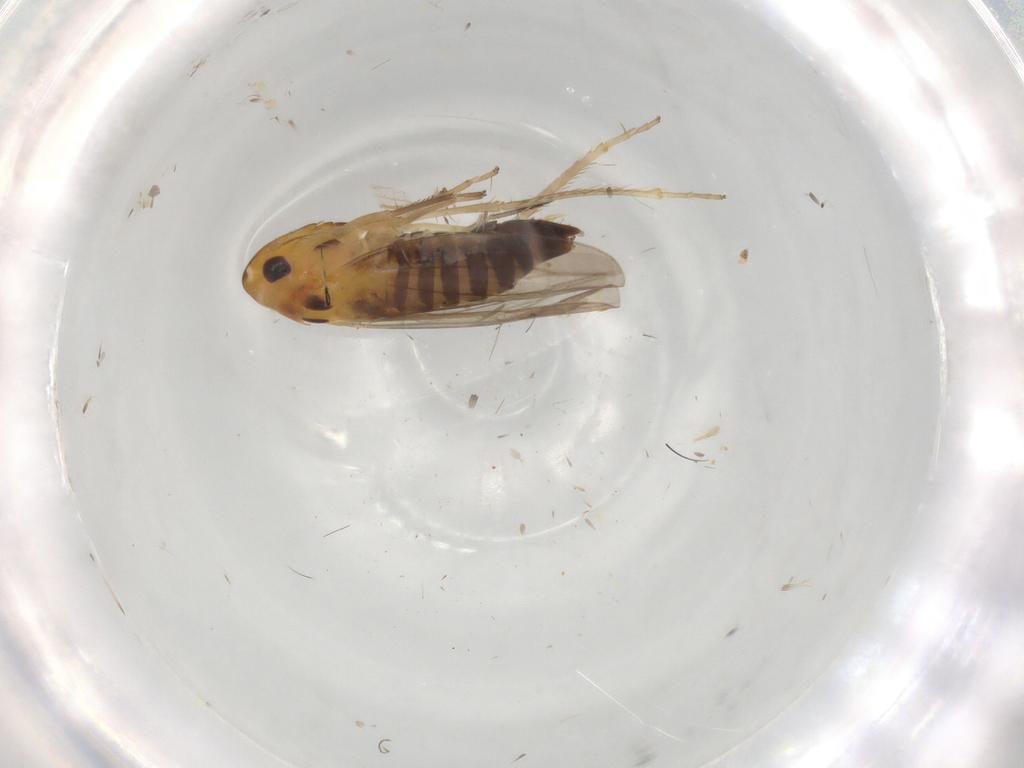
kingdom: Animalia
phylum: Arthropoda
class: Insecta
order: Hemiptera
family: Cicadellidae
